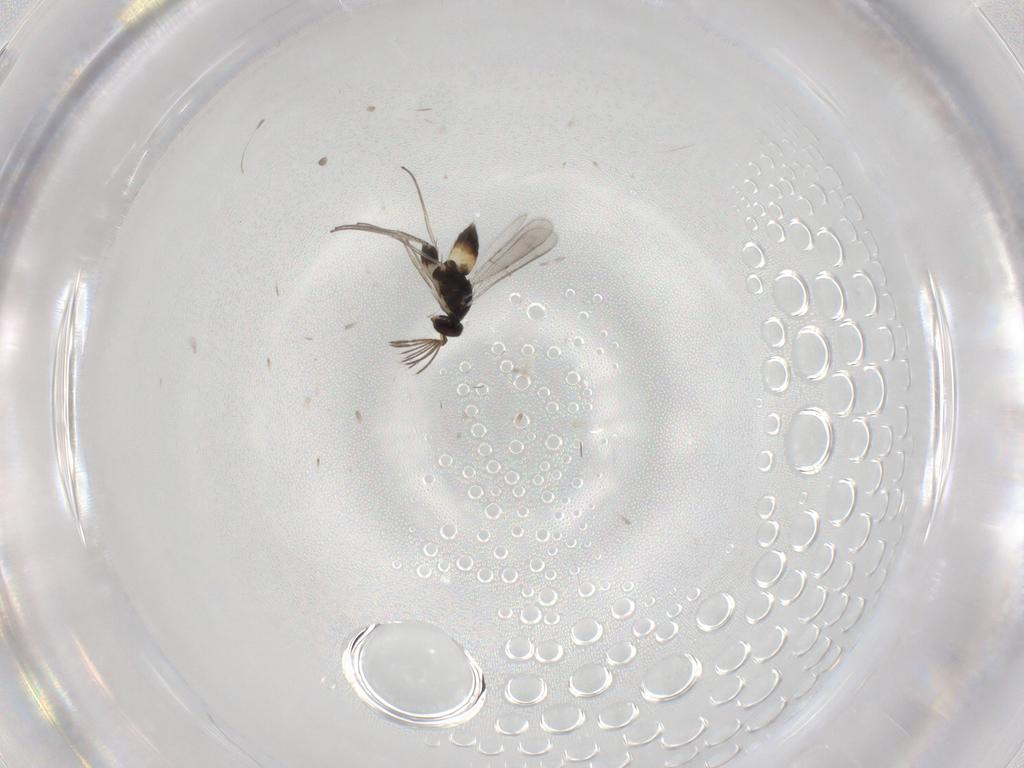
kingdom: Animalia
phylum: Arthropoda
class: Insecta
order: Hymenoptera
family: Eulophidae
